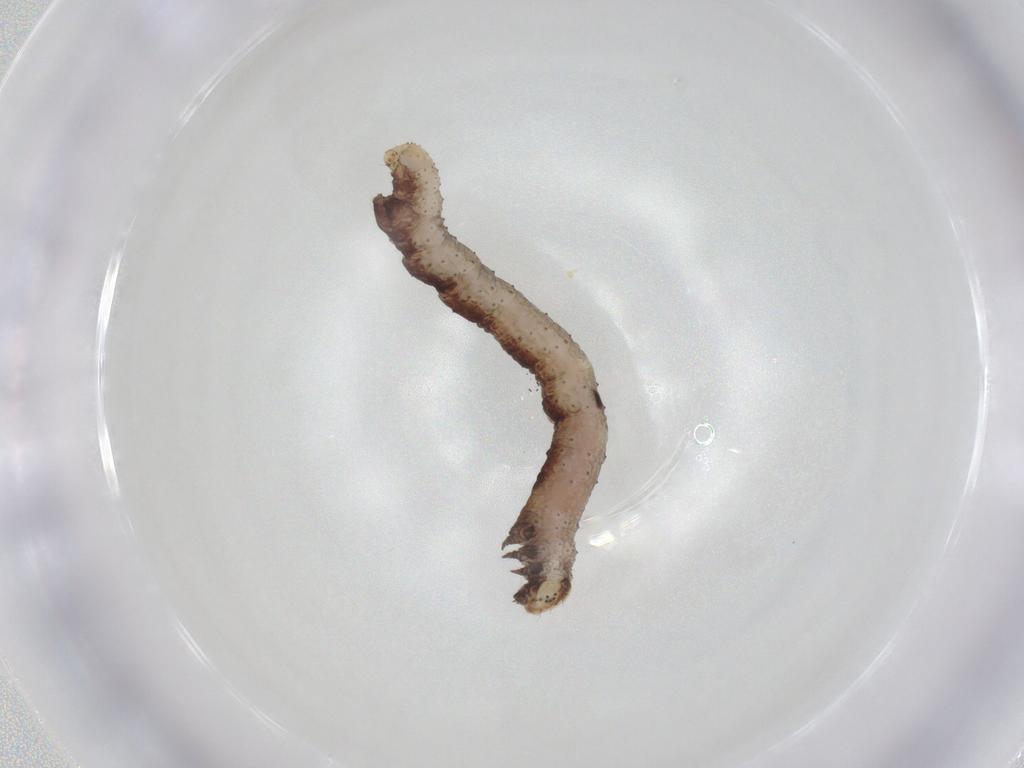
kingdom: Animalia
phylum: Arthropoda
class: Insecta
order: Lepidoptera
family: Geometridae
